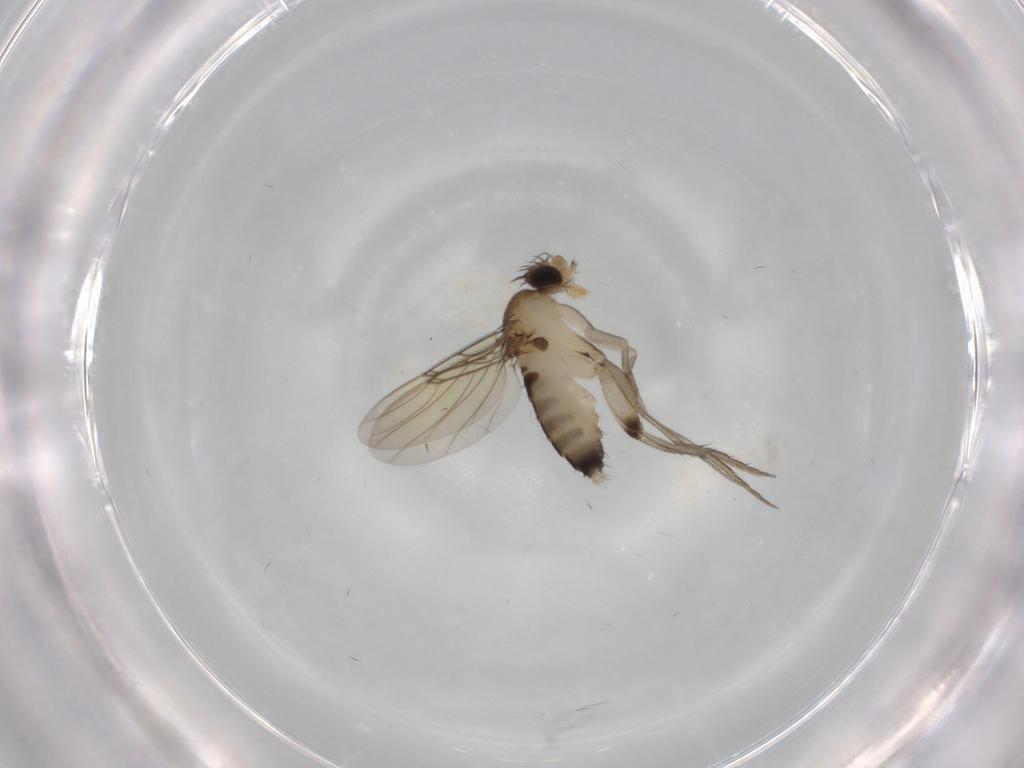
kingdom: Animalia
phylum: Arthropoda
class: Insecta
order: Diptera
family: Phoridae
